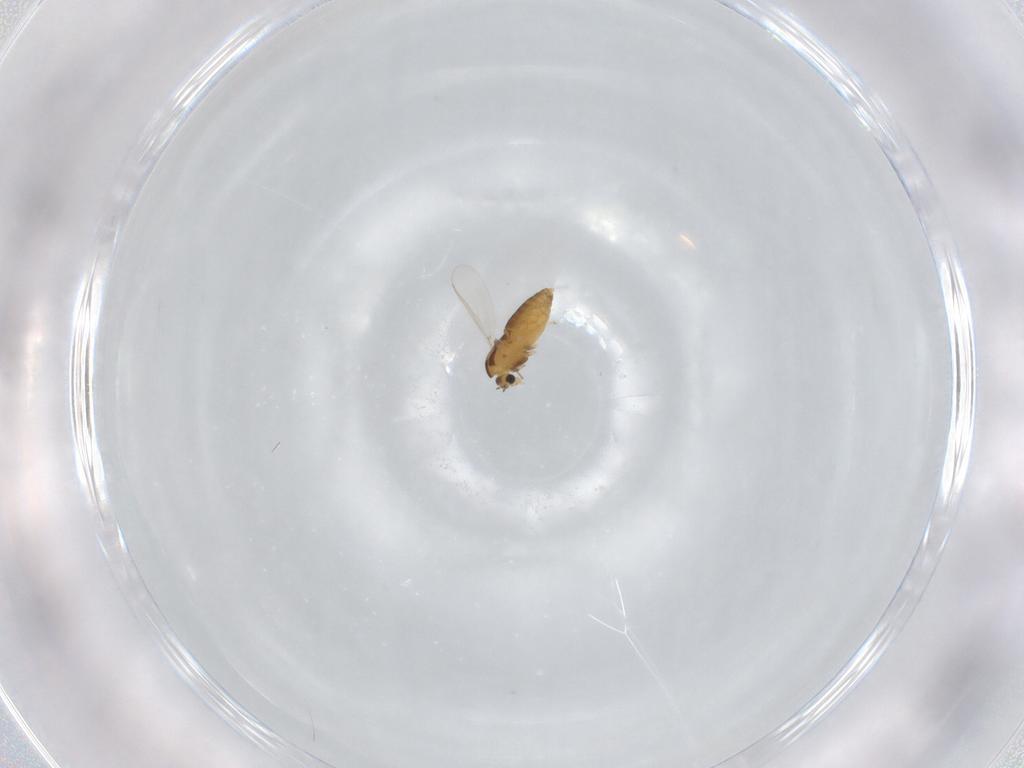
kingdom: Animalia
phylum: Arthropoda
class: Insecta
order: Diptera
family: Chironomidae
